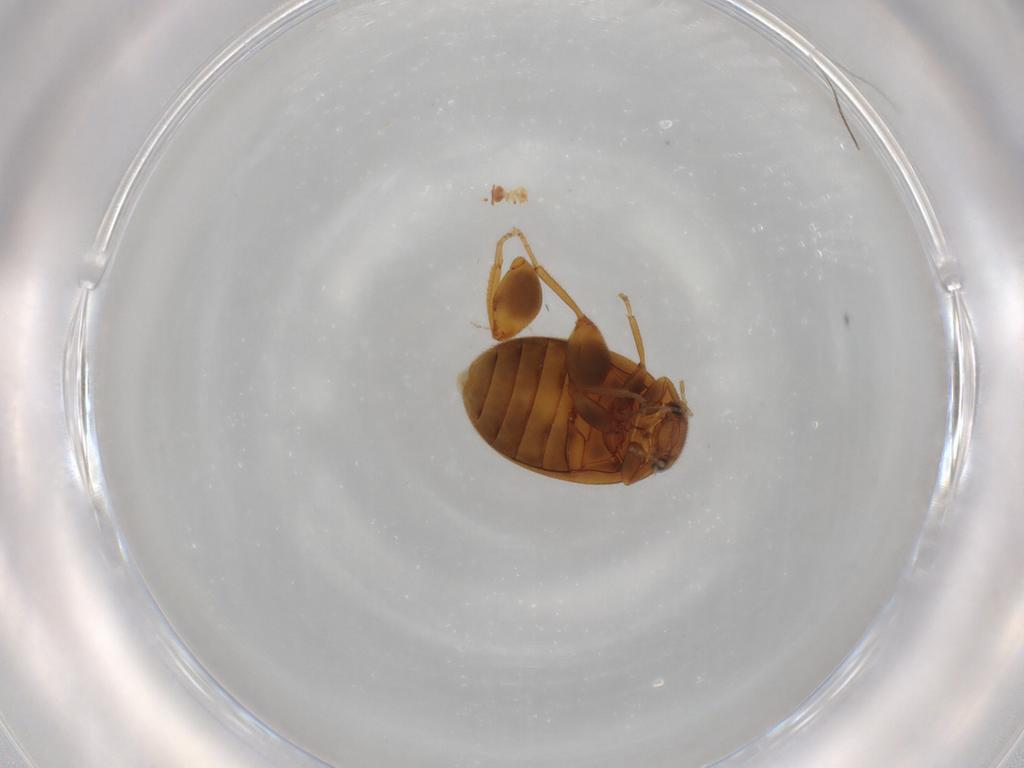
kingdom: Animalia
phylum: Arthropoda
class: Insecta
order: Coleoptera
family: Scirtidae
